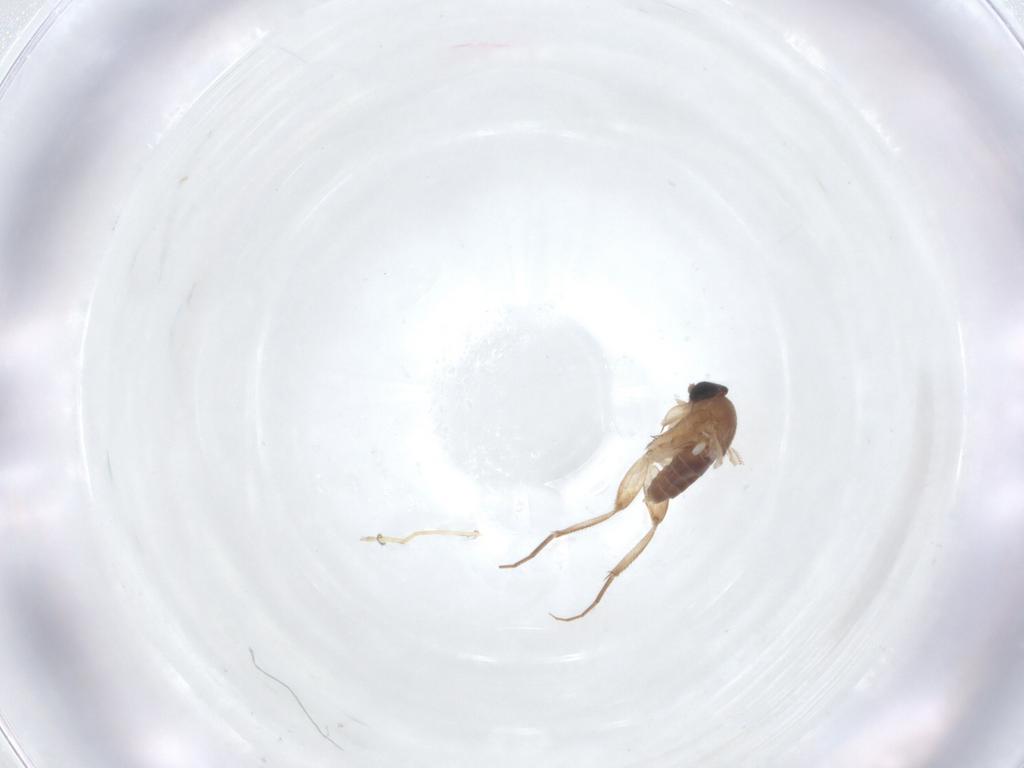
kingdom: Animalia
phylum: Arthropoda
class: Insecta
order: Diptera
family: Phoridae
